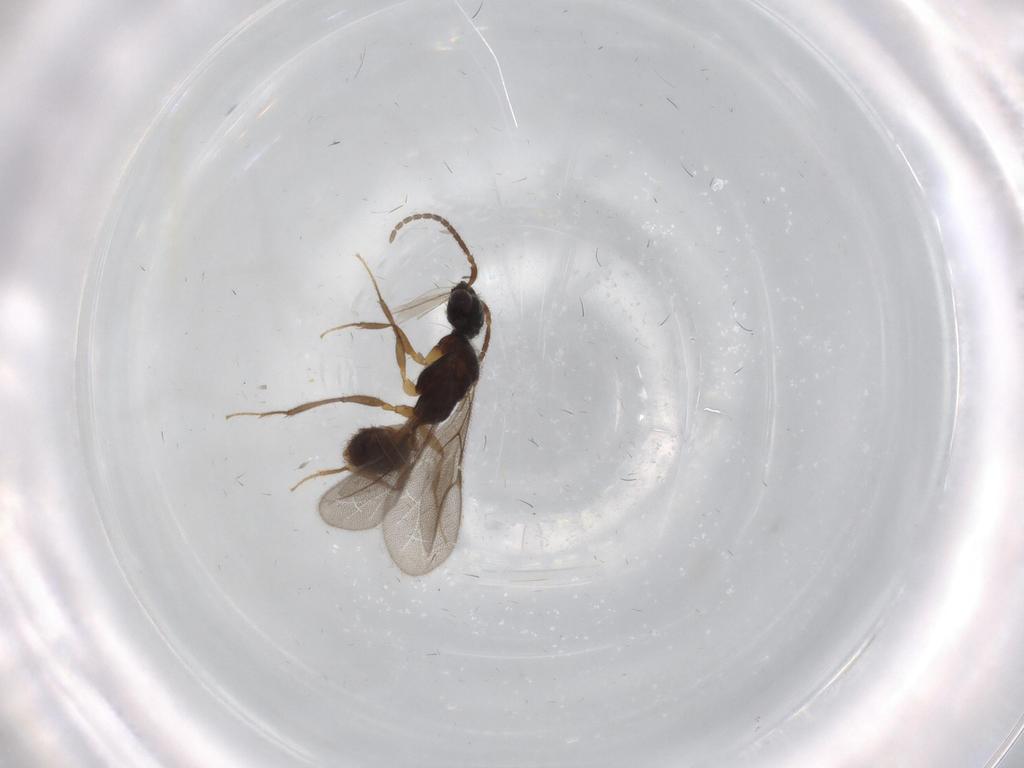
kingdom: Animalia
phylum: Arthropoda
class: Insecta
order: Hymenoptera
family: Bethylidae
